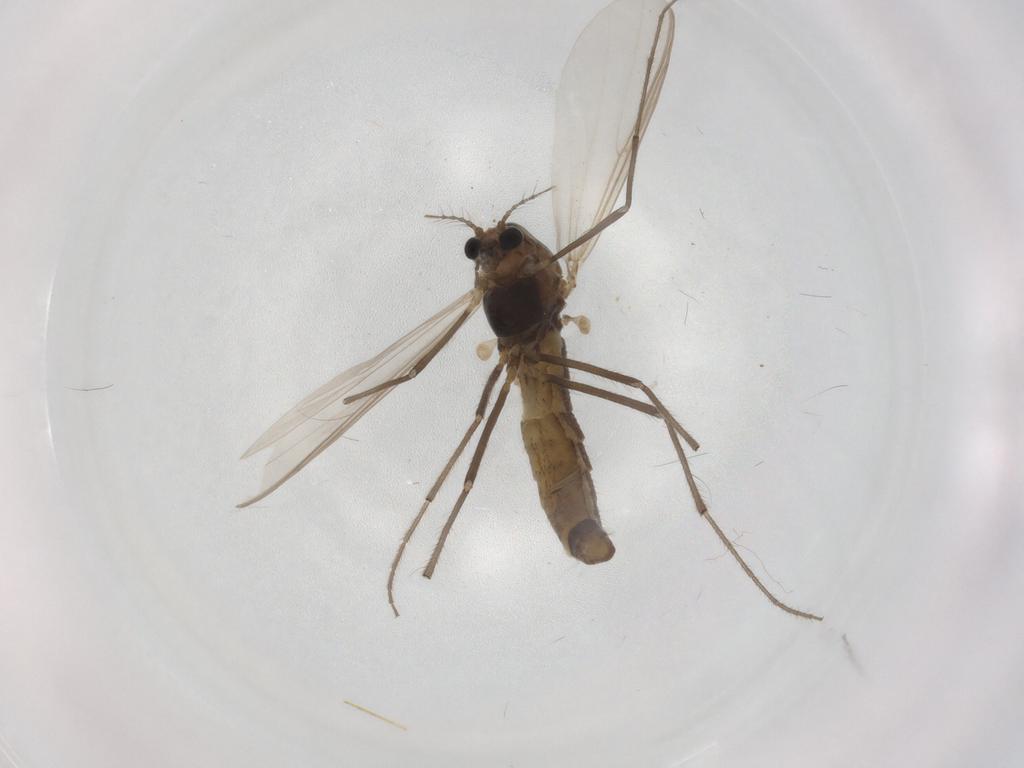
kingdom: Animalia
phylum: Arthropoda
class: Insecta
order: Diptera
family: Chironomidae
